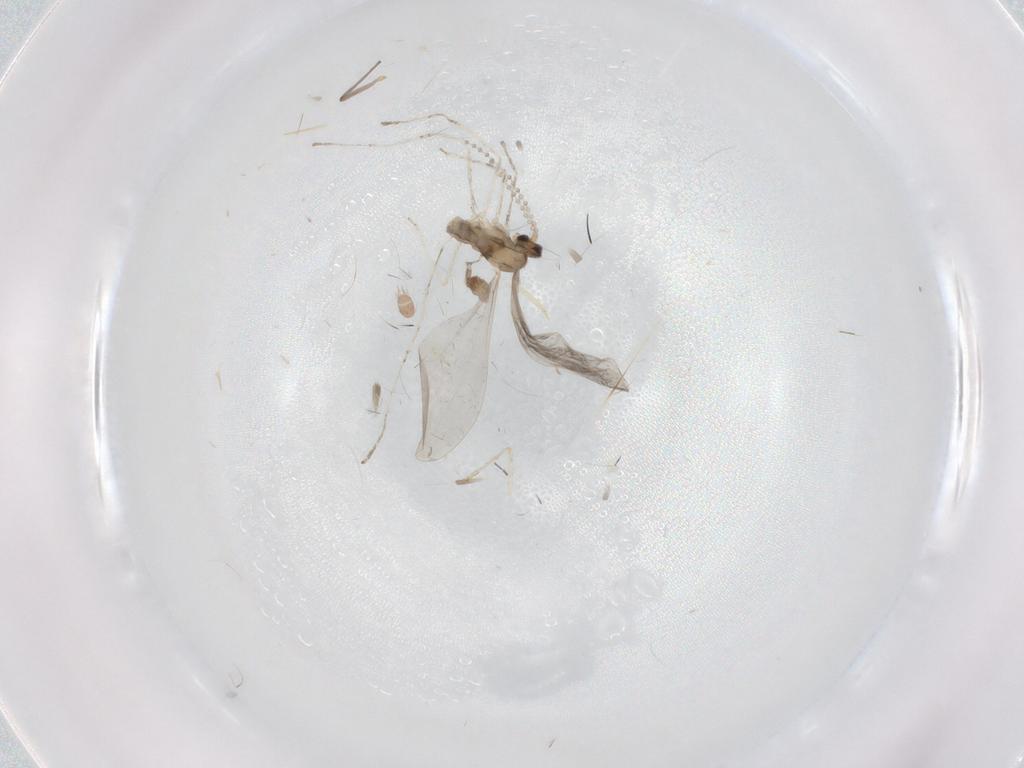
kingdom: Animalia
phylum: Arthropoda
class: Insecta
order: Diptera
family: Cecidomyiidae
